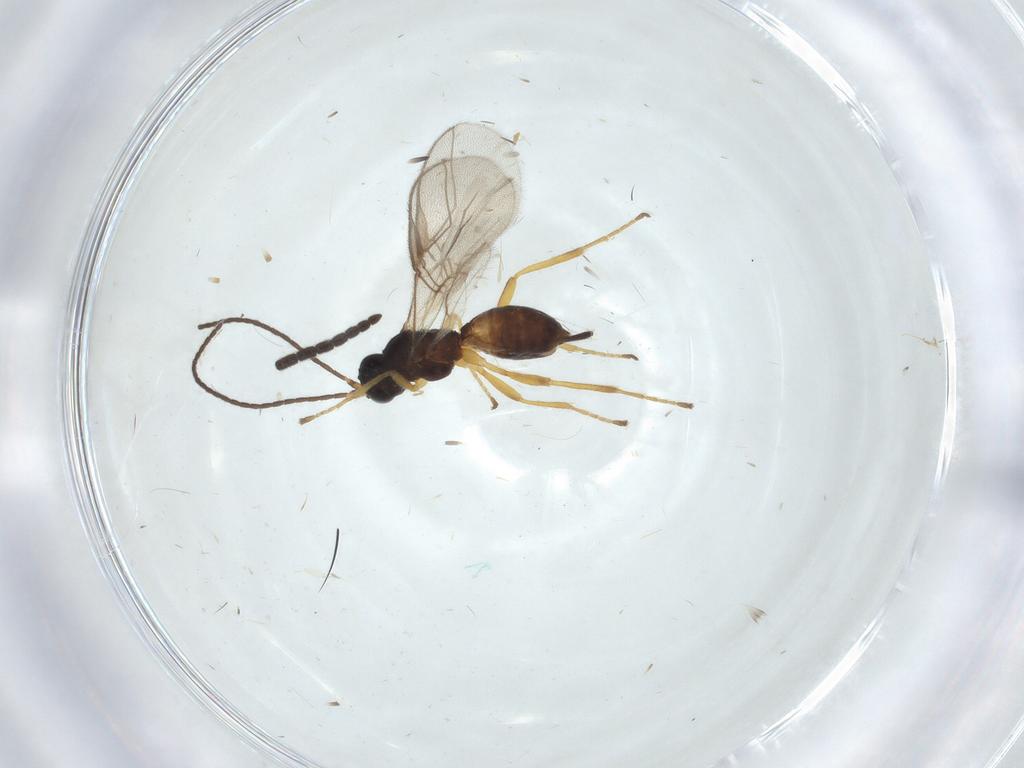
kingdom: Animalia
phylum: Arthropoda
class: Insecta
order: Hymenoptera
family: Braconidae
